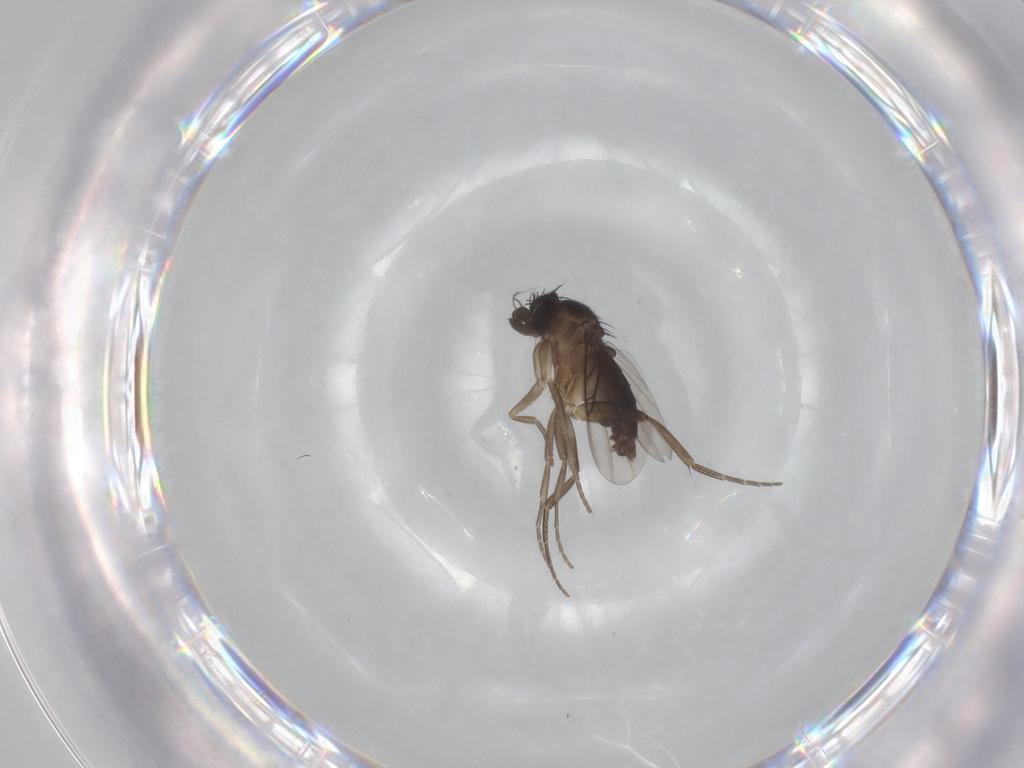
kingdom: Animalia
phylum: Arthropoda
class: Insecta
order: Diptera
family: Phoridae
